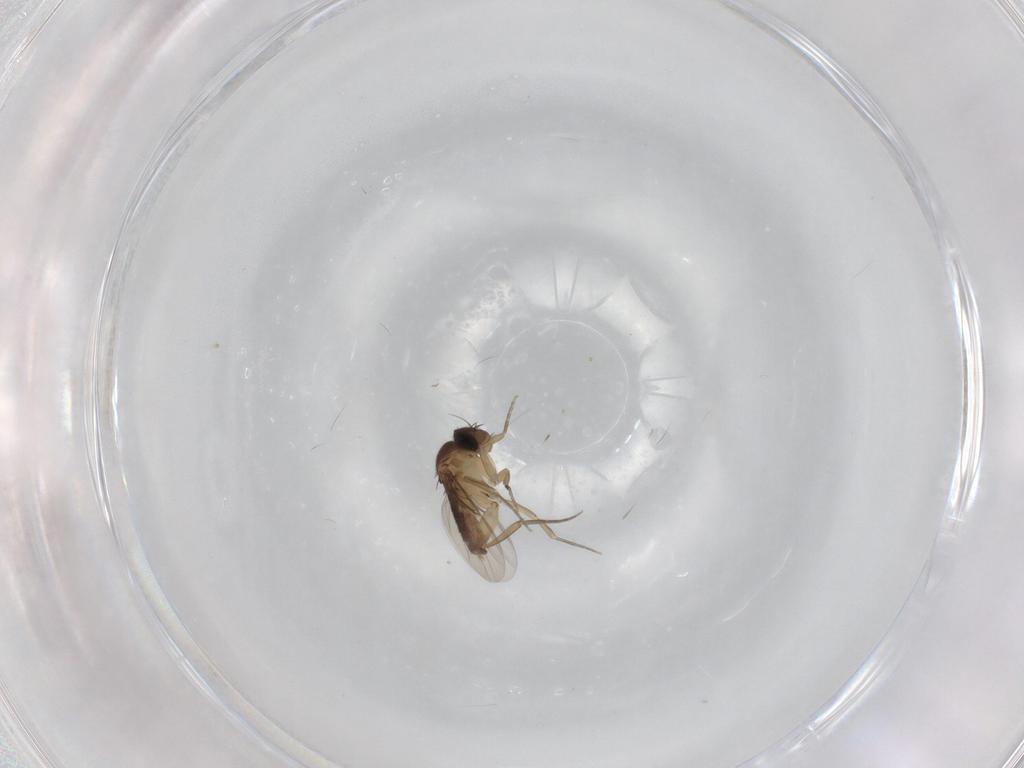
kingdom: Animalia
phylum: Arthropoda
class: Insecta
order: Diptera
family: Phoridae
